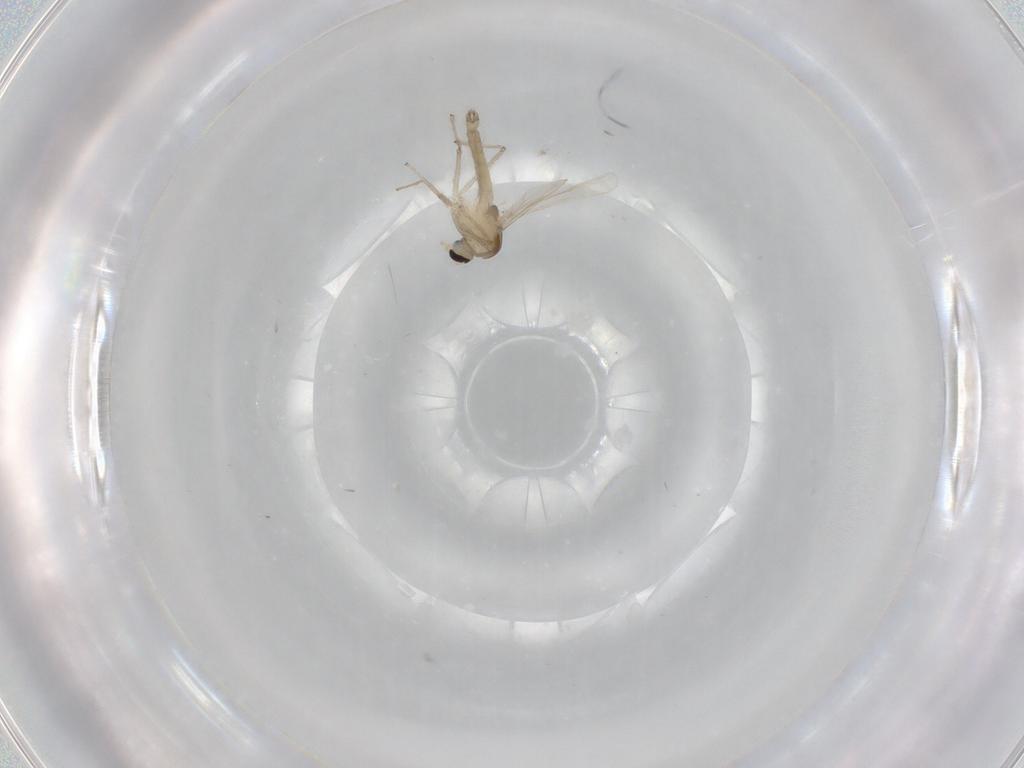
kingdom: Animalia
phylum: Arthropoda
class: Insecta
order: Diptera
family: Chironomidae
